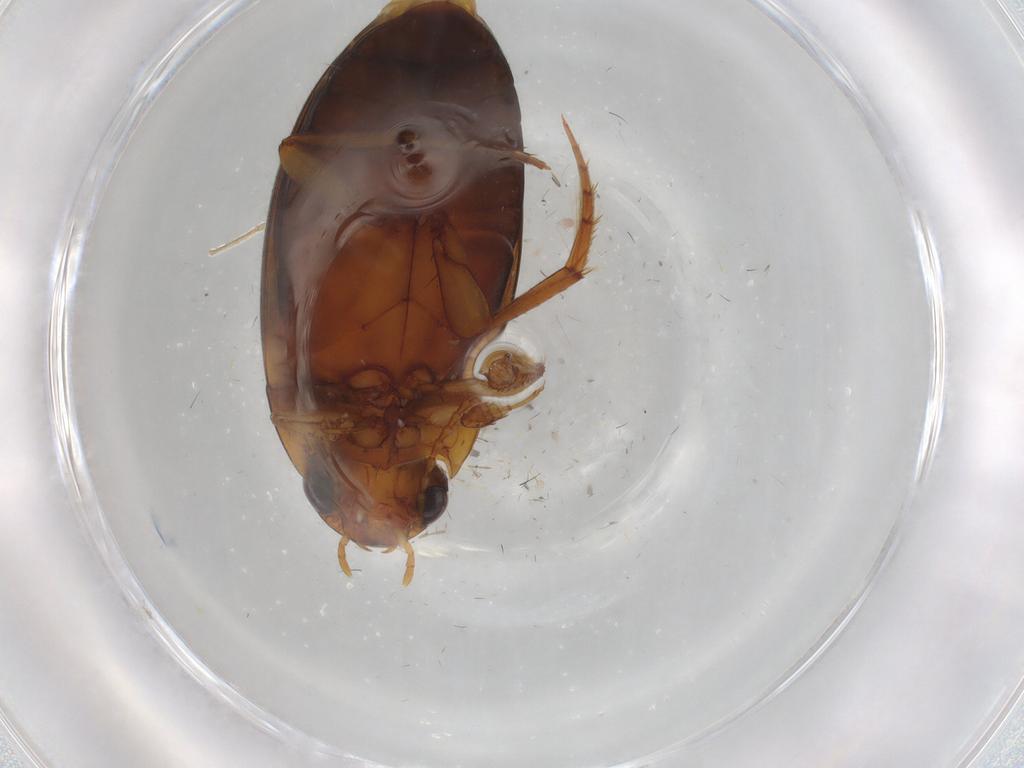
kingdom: Animalia
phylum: Arthropoda
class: Insecta
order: Coleoptera
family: Dytiscidae
